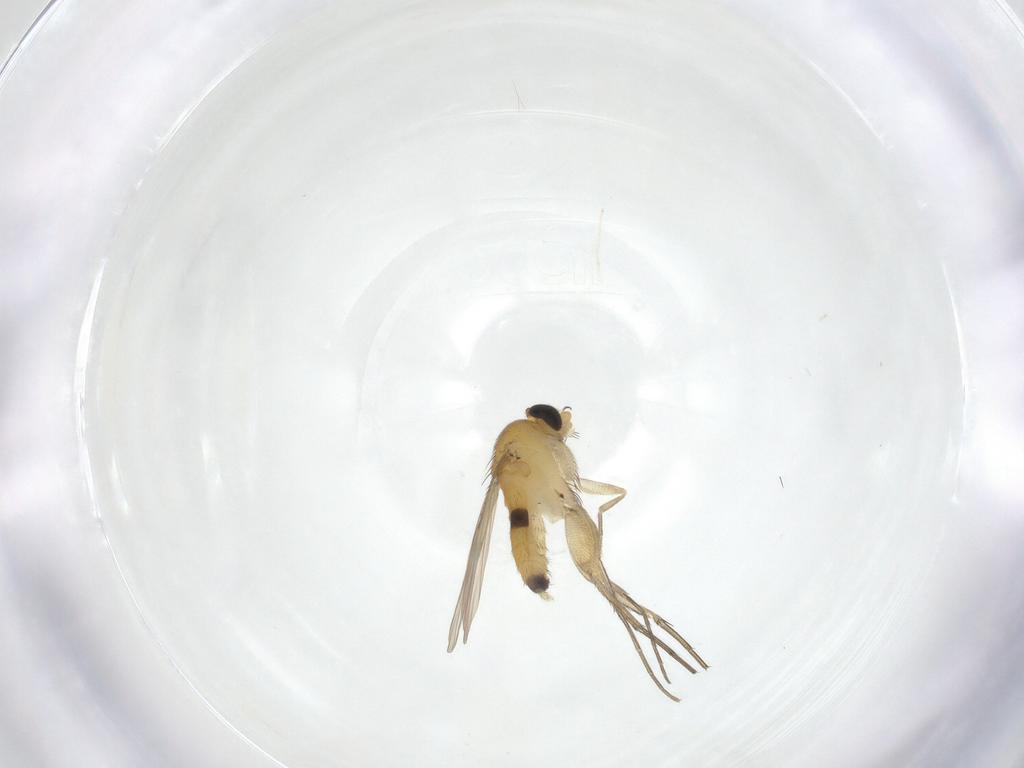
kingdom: Animalia
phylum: Arthropoda
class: Insecta
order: Diptera
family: Phoridae
